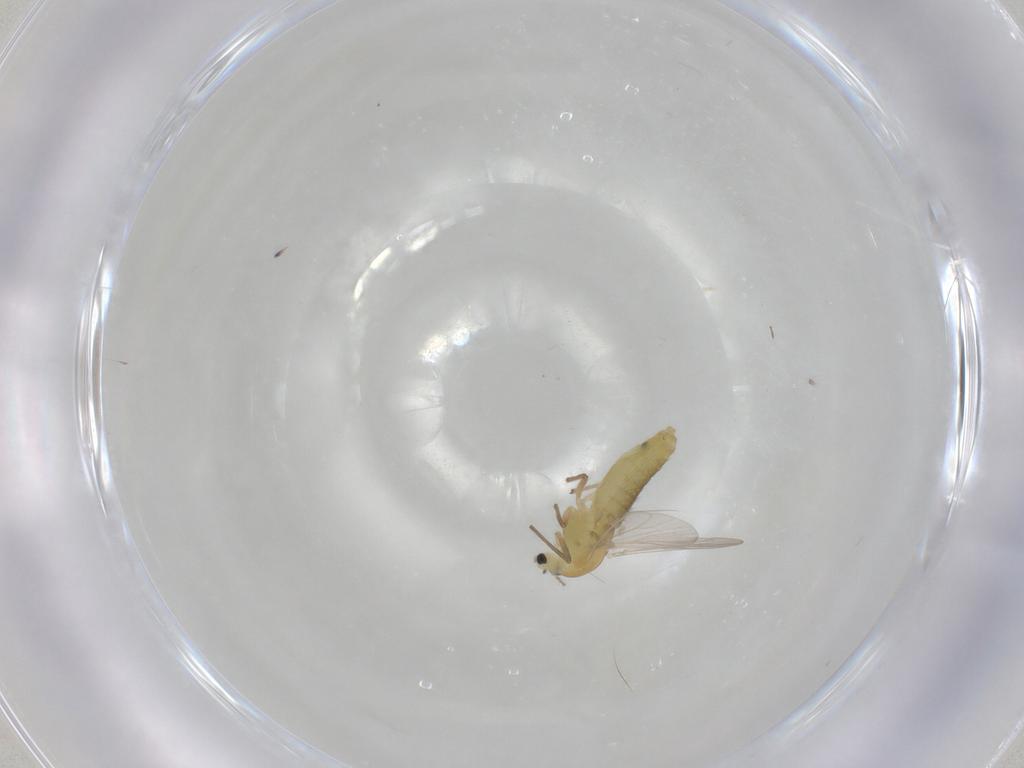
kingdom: Animalia
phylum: Arthropoda
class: Insecta
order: Diptera
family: Chironomidae
